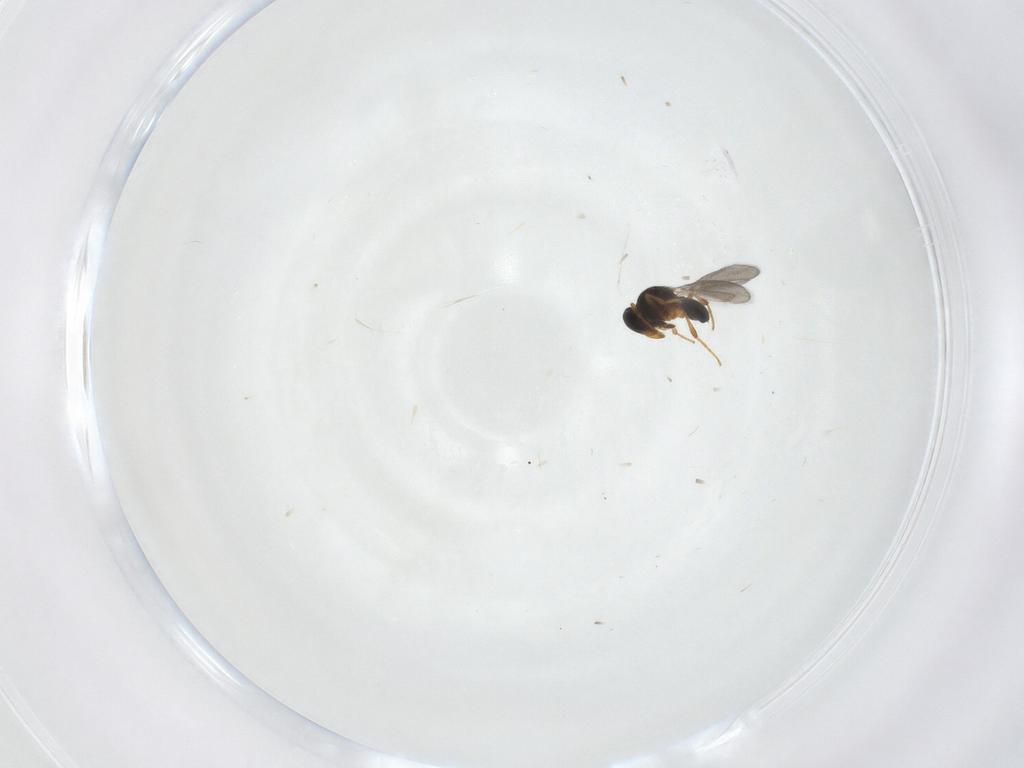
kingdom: Animalia
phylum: Arthropoda
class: Insecta
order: Hymenoptera
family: Platygastridae
